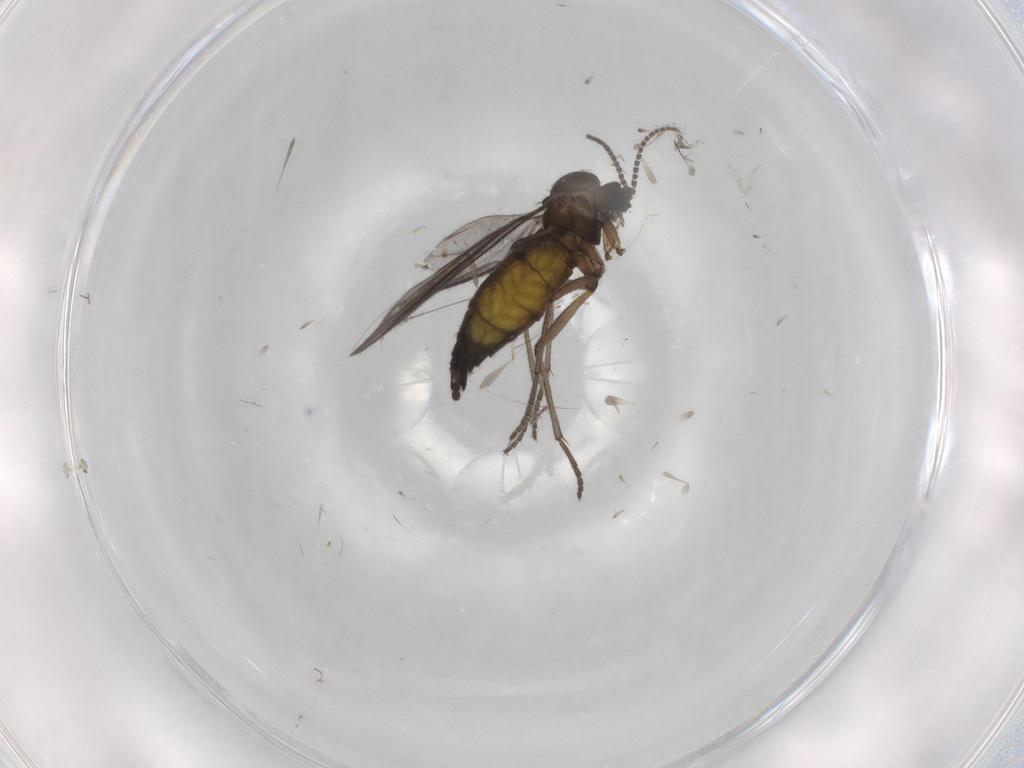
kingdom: Animalia
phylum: Arthropoda
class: Insecta
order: Diptera
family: Sciaridae
